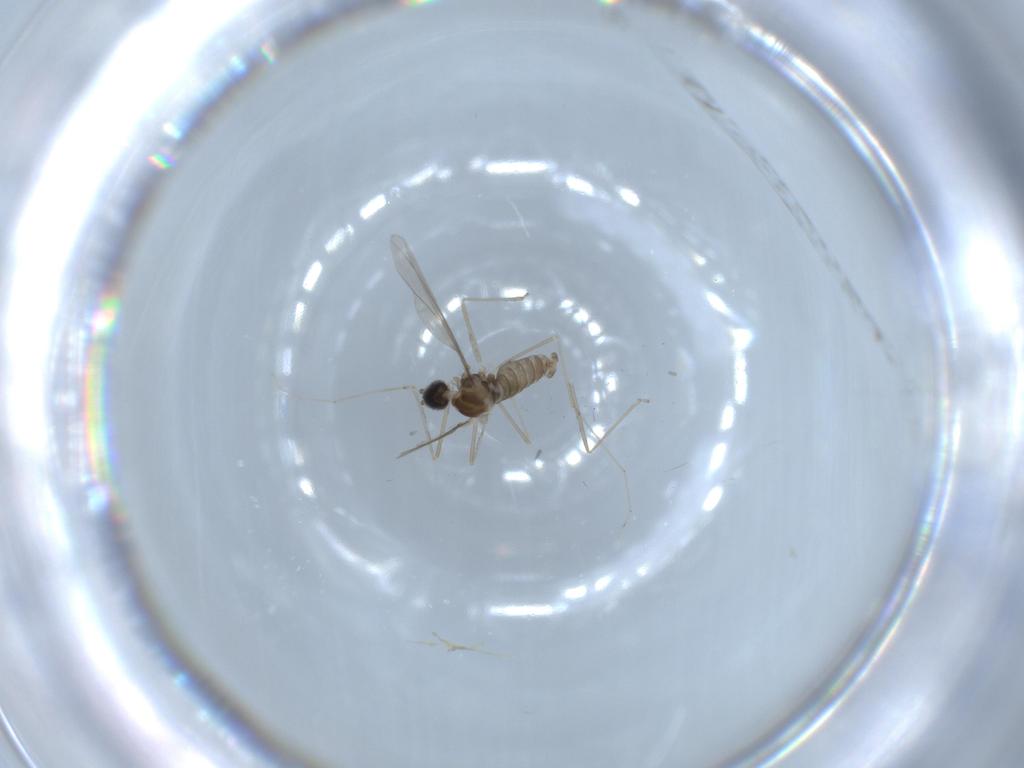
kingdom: Animalia
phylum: Arthropoda
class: Insecta
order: Diptera
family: Cecidomyiidae
